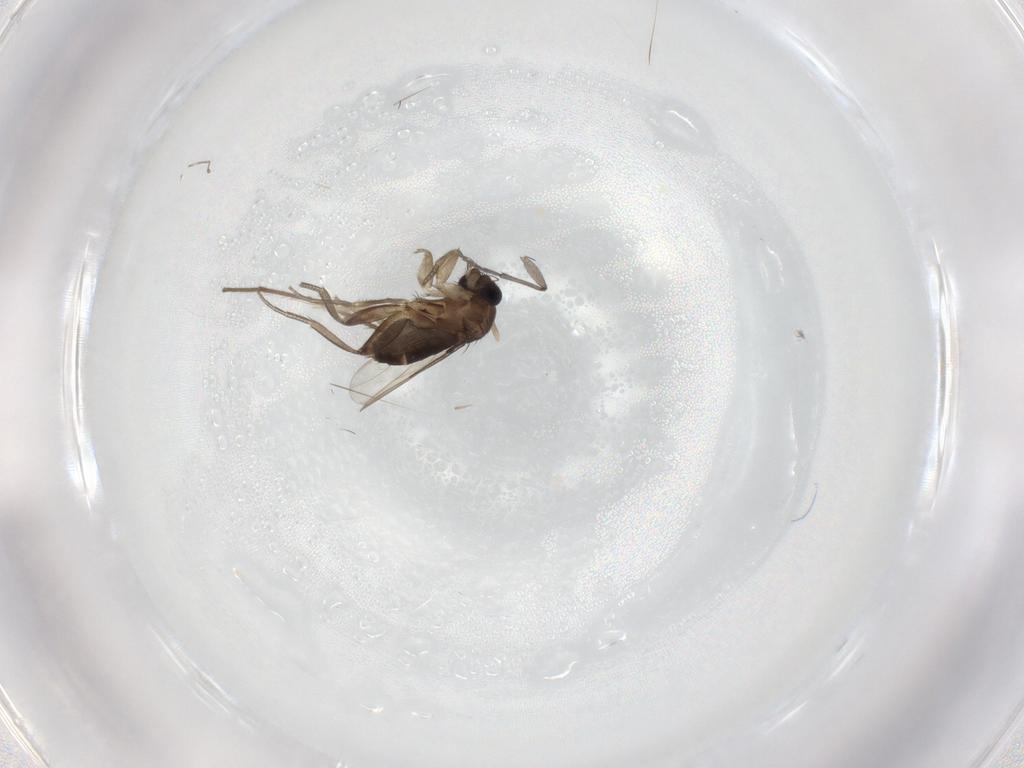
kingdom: Animalia
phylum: Arthropoda
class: Insecta
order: Diptera
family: Phoridae
